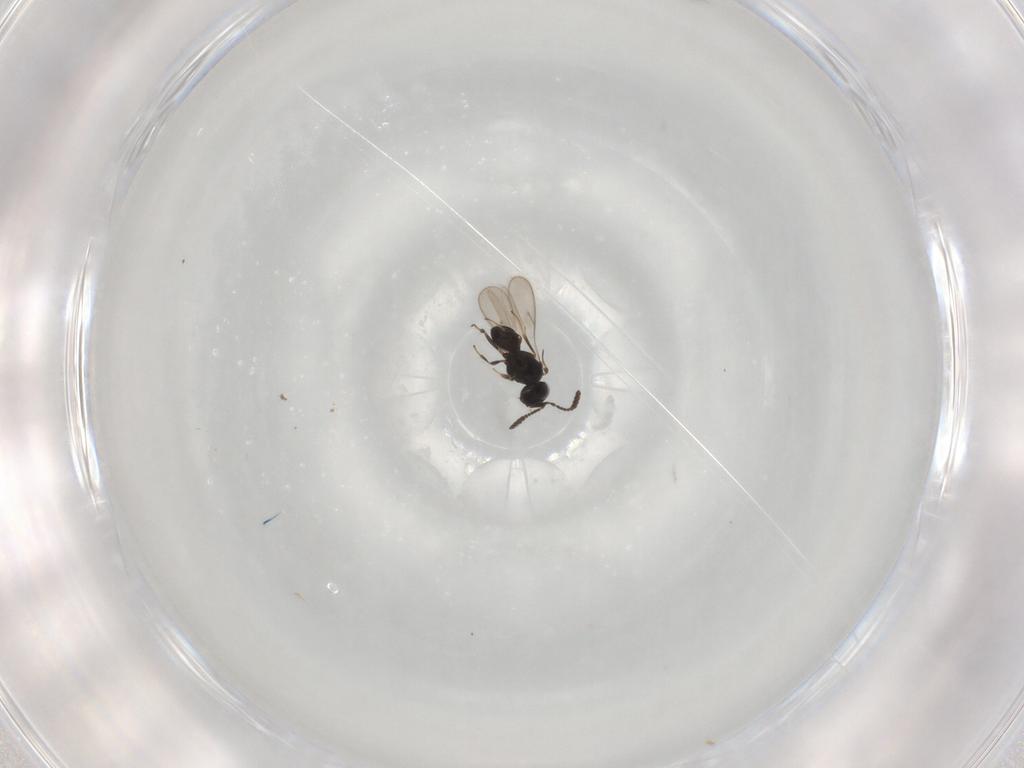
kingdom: Animalia
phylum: Arthropoda
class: Insecta
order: Hymenoptera
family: Scelionidae
